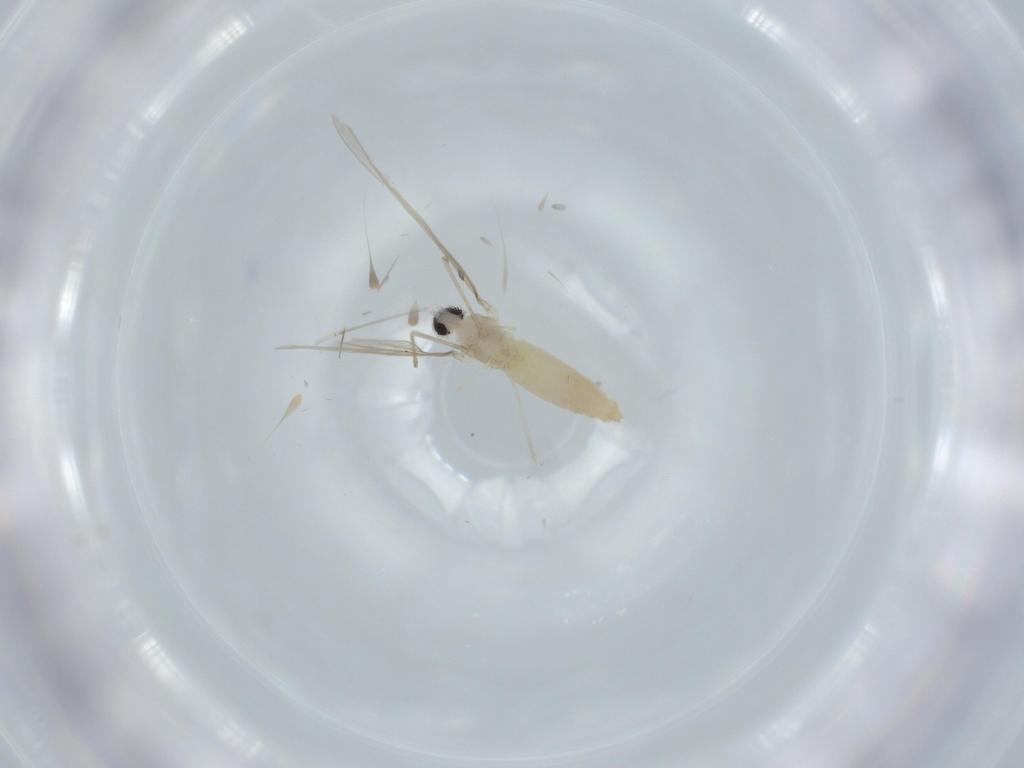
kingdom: Animalia
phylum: Arthropoda
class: Insecta
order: Diptera
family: Cecidomyiidae
